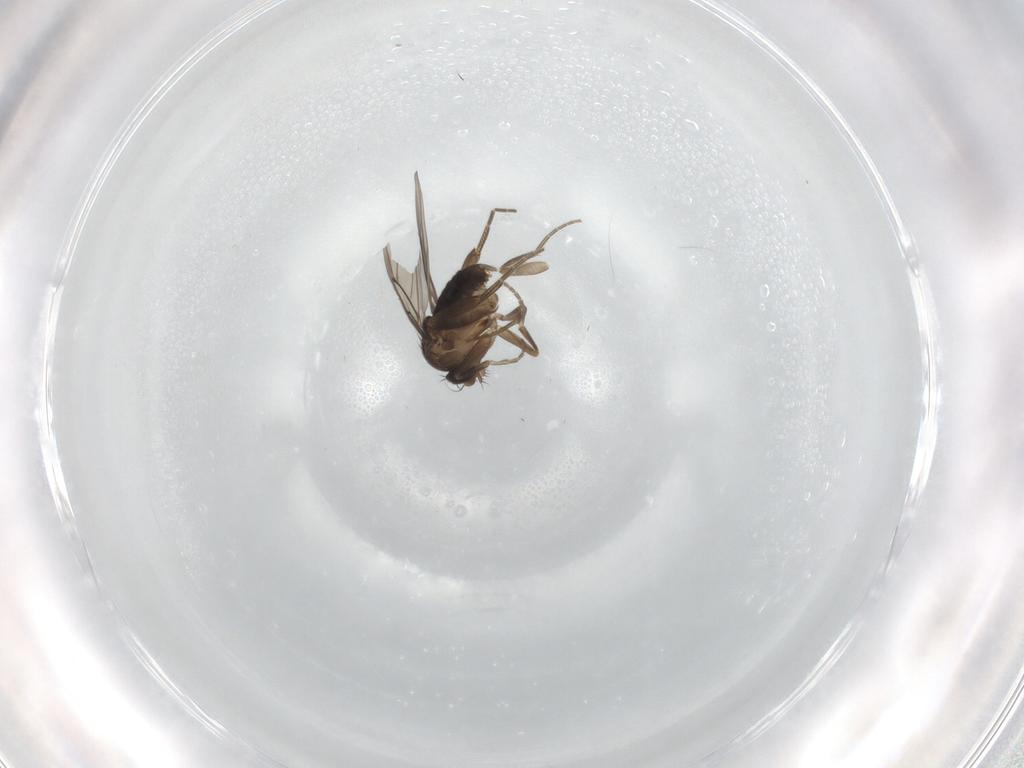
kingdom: Animalia
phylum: Arthropoda
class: Insecta
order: Diptera
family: Phoridae
